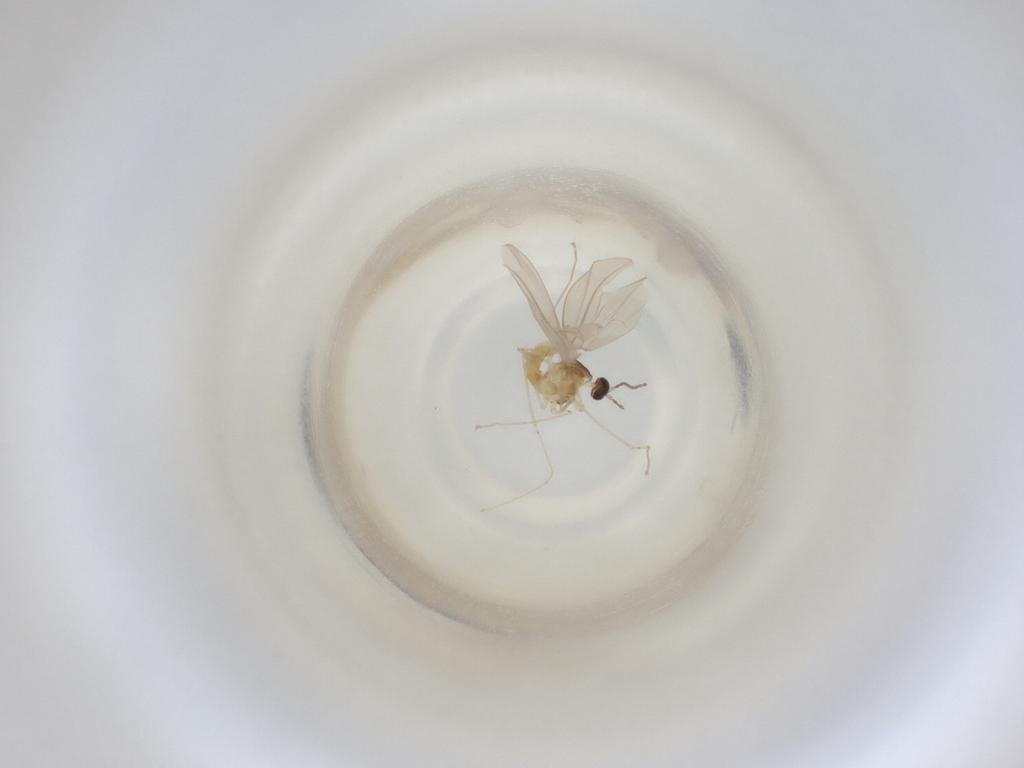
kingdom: Animalia
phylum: Arthropoda
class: Insecta
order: Diptera
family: Cecidomyiidae
